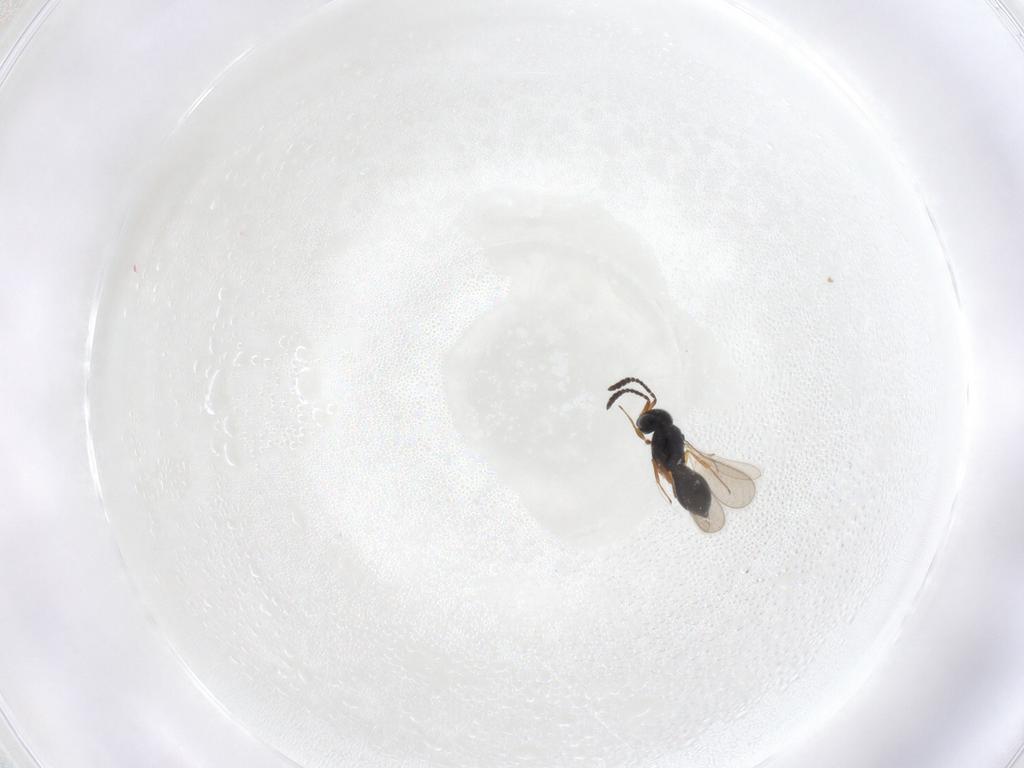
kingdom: Animalia
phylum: Arthropoda
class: Insecta
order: Hymenoptera
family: Scelionidae
